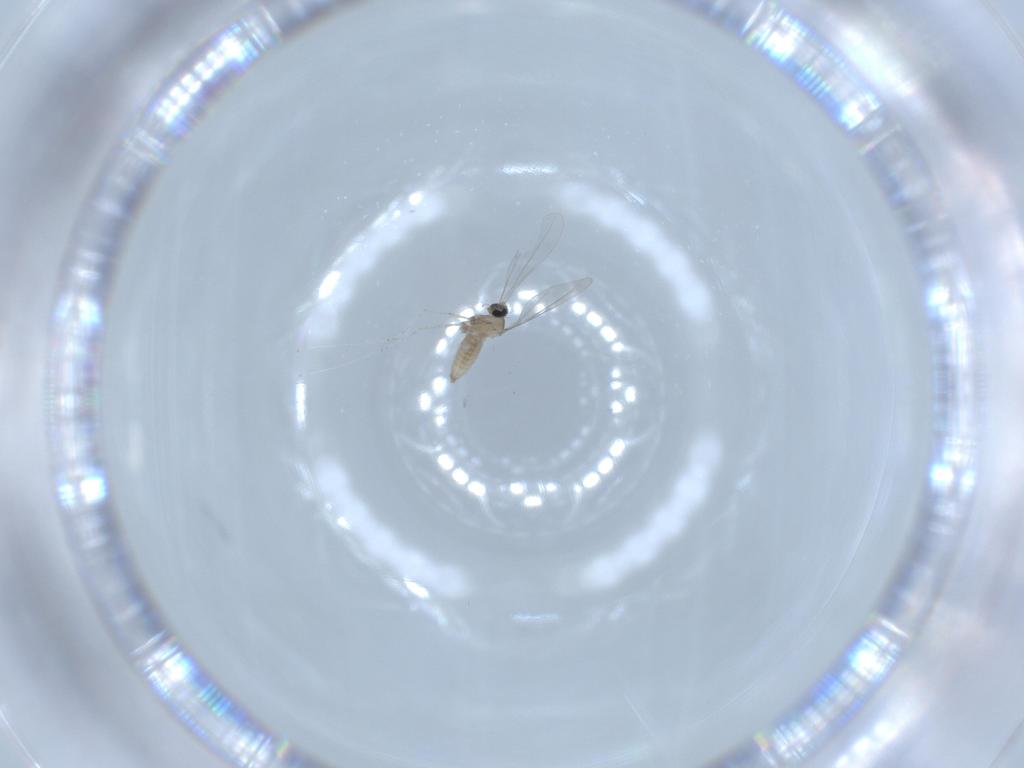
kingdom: Animalia
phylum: Arthropoda
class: Insecta
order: Diptera
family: Cecidomyiidae
